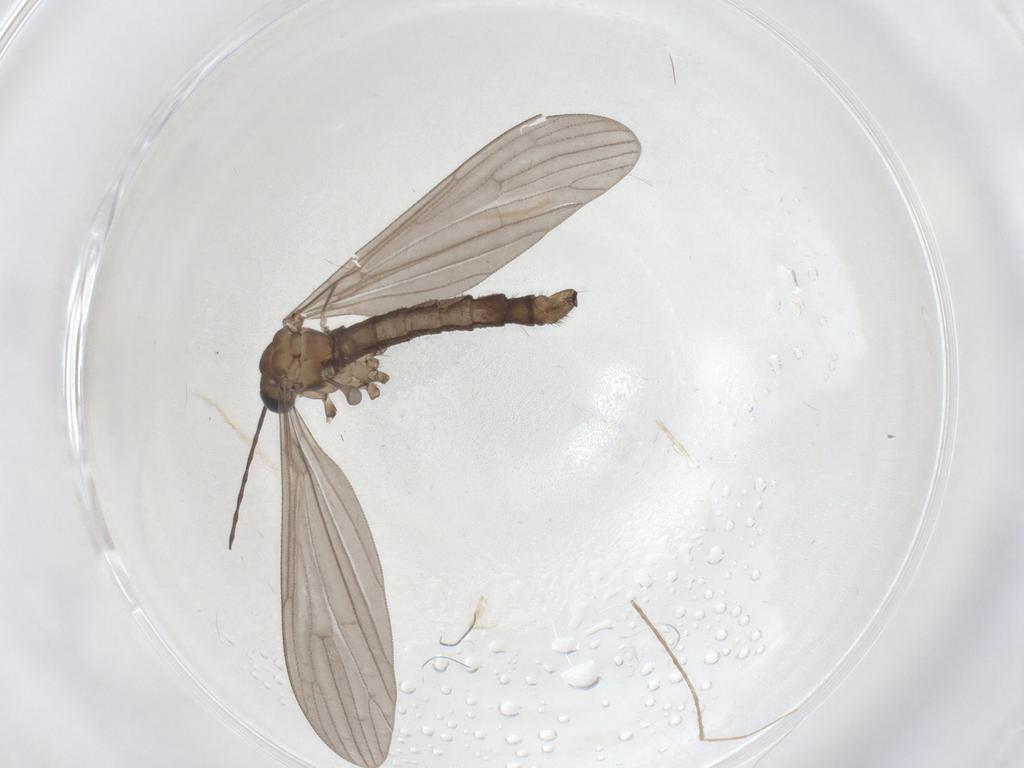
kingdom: Animalia
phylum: Arthropoda
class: Insecta
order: Diptera
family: Chironomidae
